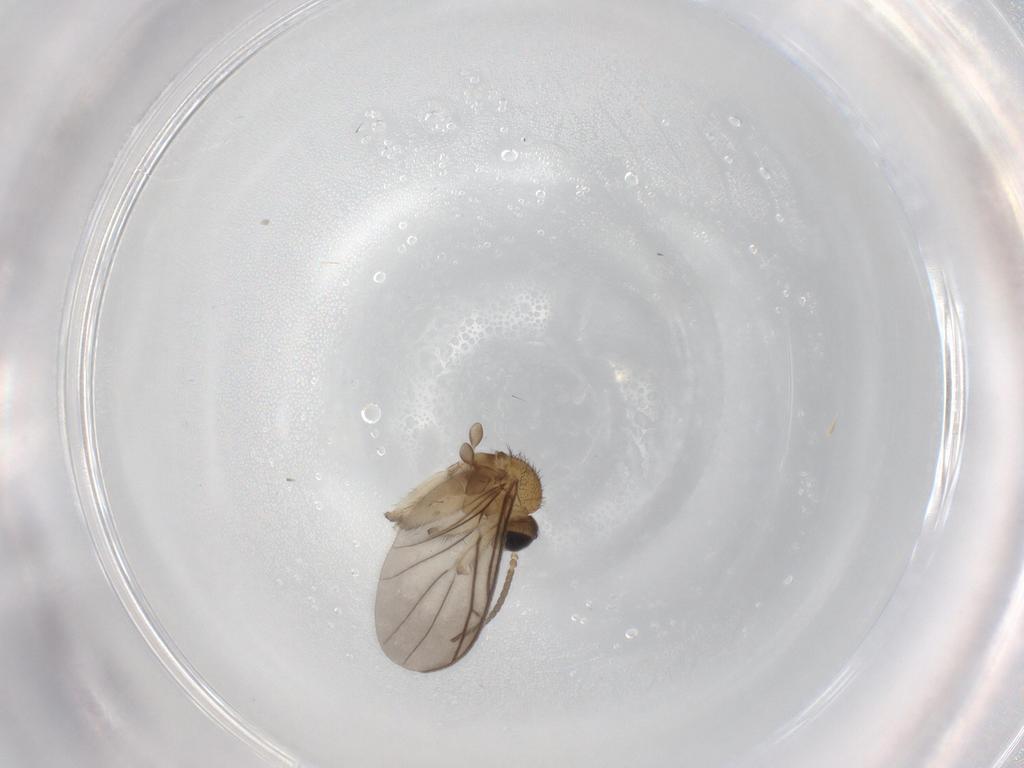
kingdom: Animalia
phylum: Arthropoda
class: Insecta
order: Diptera
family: Keroplatidae
